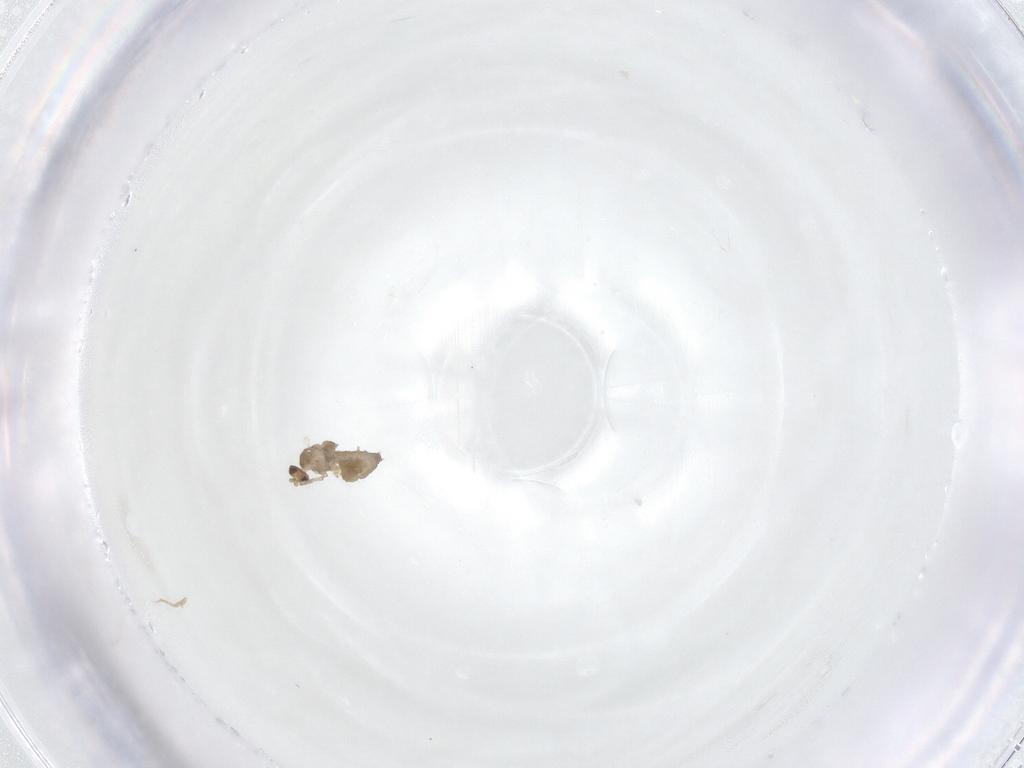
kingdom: Animalia
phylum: Arthropoda
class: Insecta
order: Diptera
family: Cecidomyiidae
